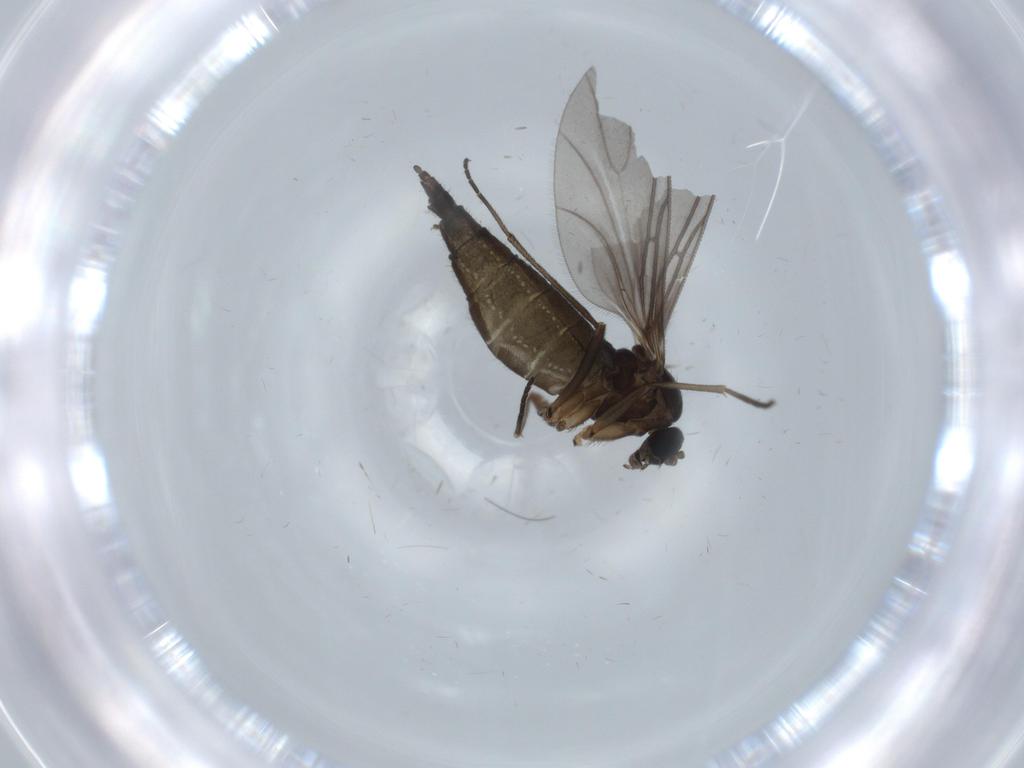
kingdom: Animalia
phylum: Arthropoda
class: Insecta
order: Diptera
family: Sciaridae
